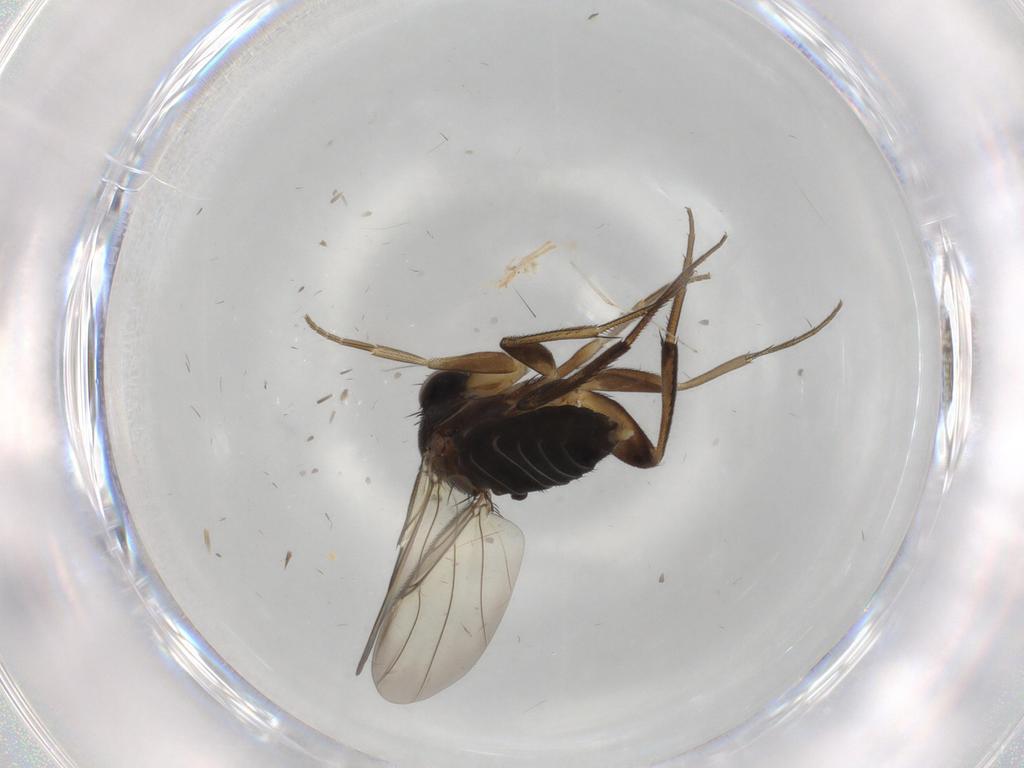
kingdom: Animalia
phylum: Arthropoda
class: Insecta
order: Diptera
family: Phoridae
